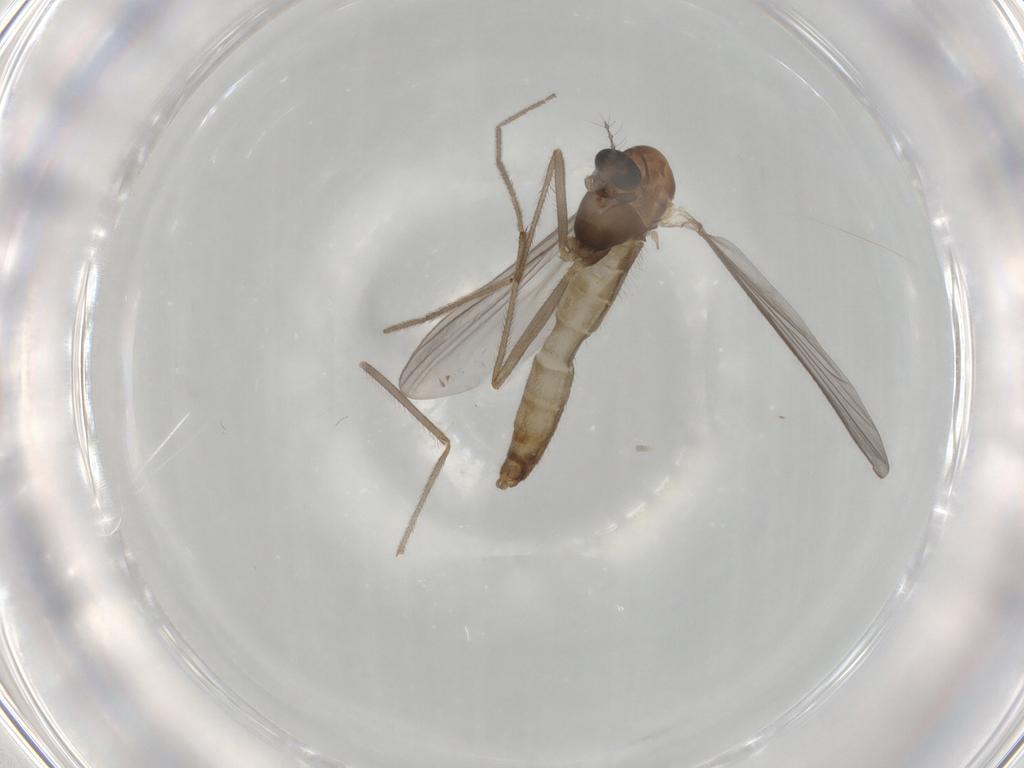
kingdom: Animalia
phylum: Arthropoda
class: Insecta
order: Diptera
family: Chironomidae
